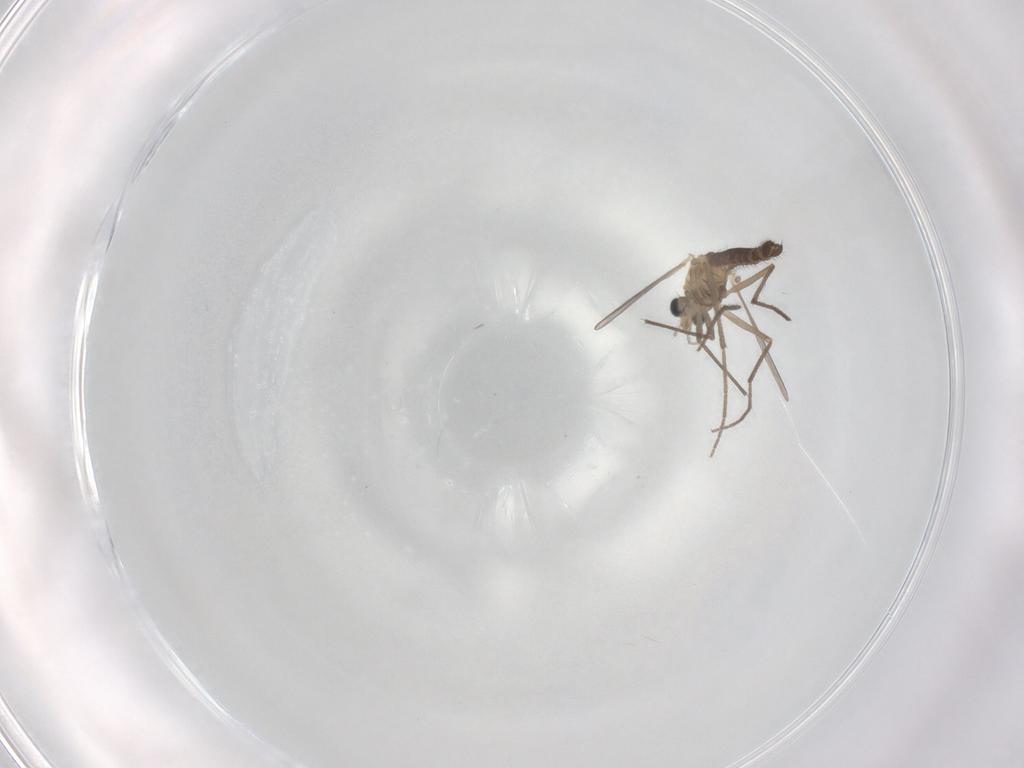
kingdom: Animalia
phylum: Arthropoda
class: Insecta
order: Diptera
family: Chironomidae
